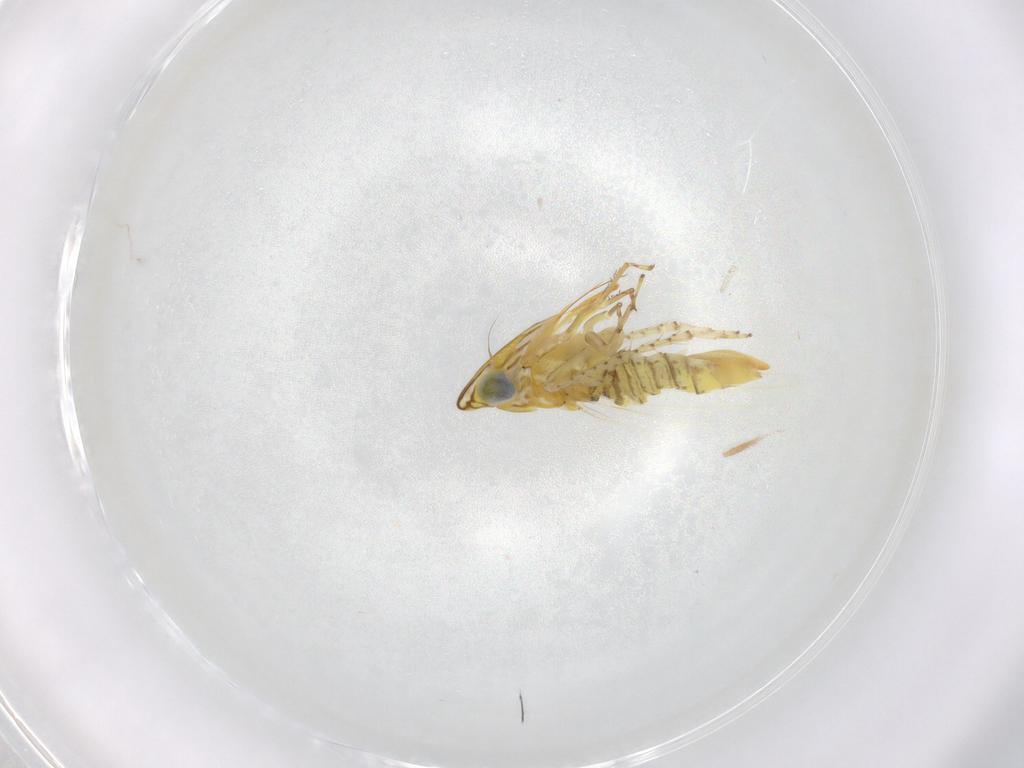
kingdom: Animalia
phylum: Arthropoda
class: Insecta
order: Hemiptera
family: Cicadellidae
